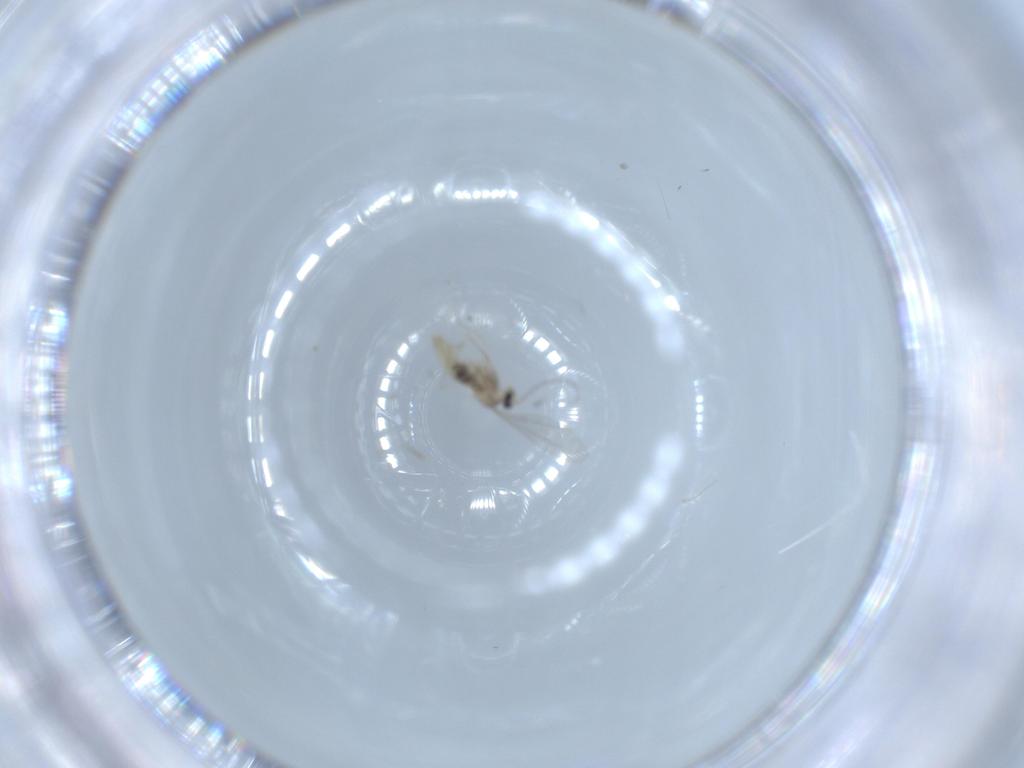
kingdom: Animalia
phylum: Arthropoda
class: Insecta
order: Diptera
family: Cecidomyiidae
